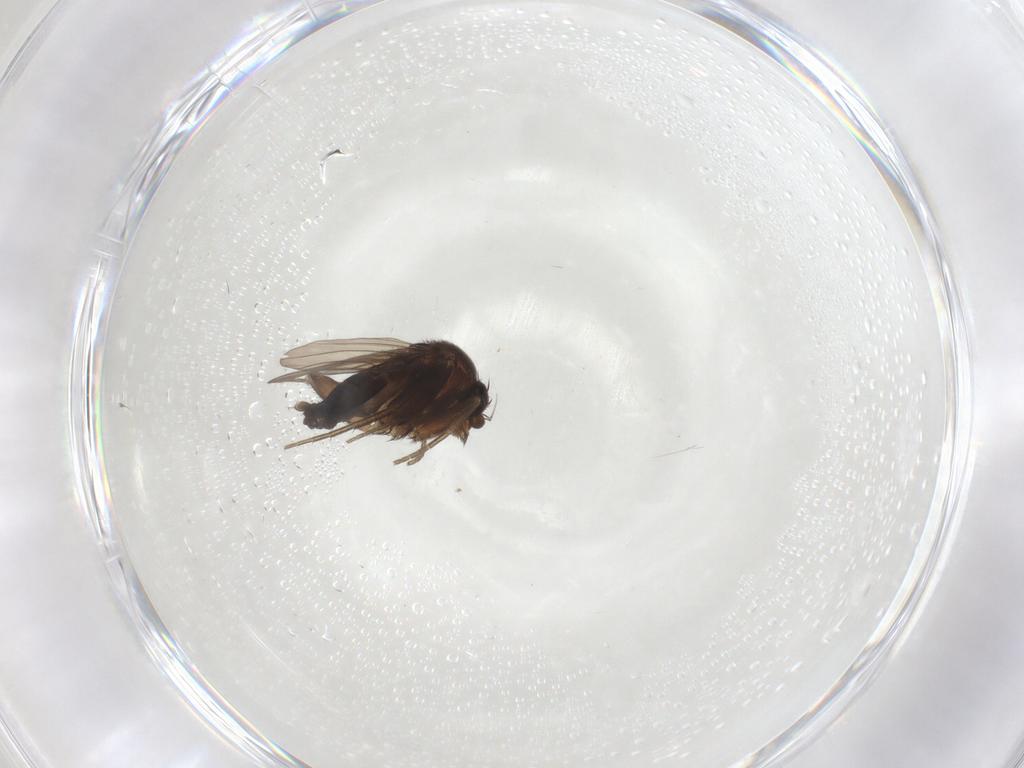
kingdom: Animalia
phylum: Arthropoda
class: Insecta
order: Diptera
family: Phoridae
